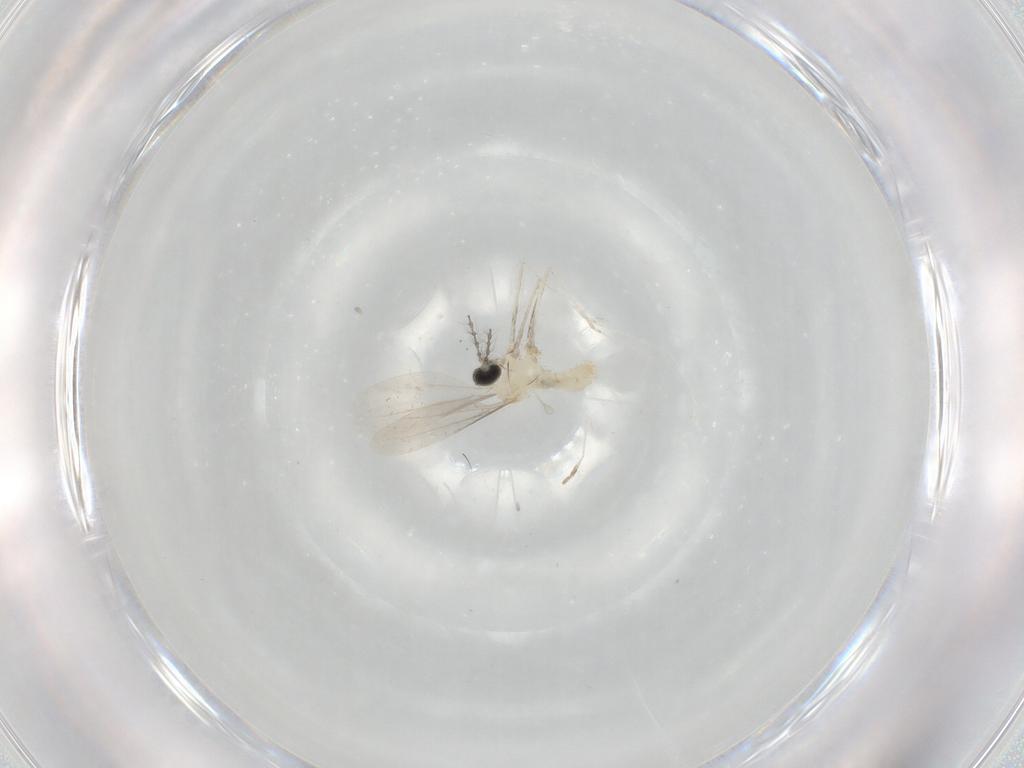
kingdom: Animalia
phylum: Arthropoda
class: Insecta
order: Diptera
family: Cecidomyiidae
